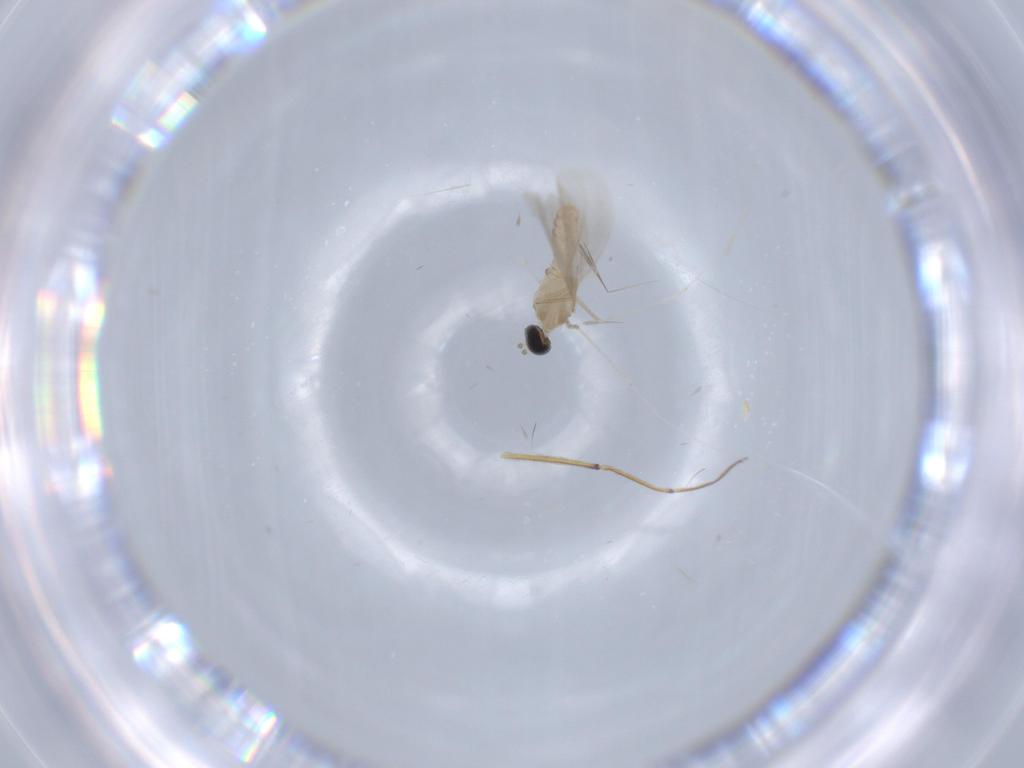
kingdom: Animalia
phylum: Arthropoda
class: Insecta
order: Diptera
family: Cecidomyiidae
